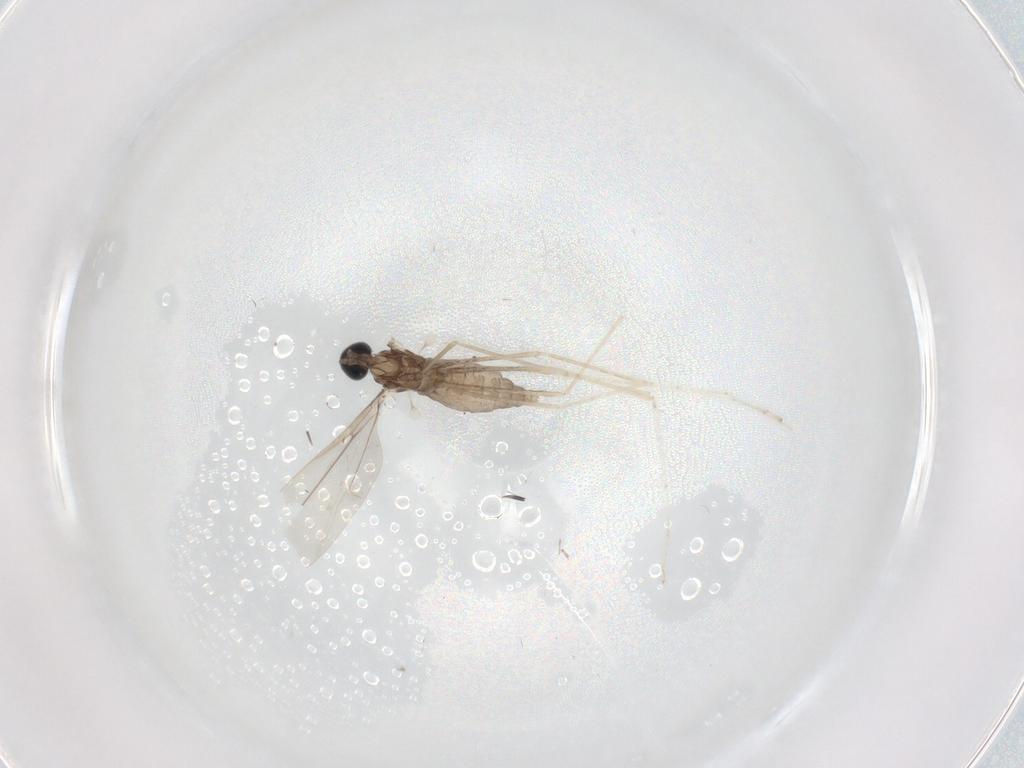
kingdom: Animalia
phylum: Arthropoda
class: Insecta
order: Diptera
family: Cecidomyiidae
